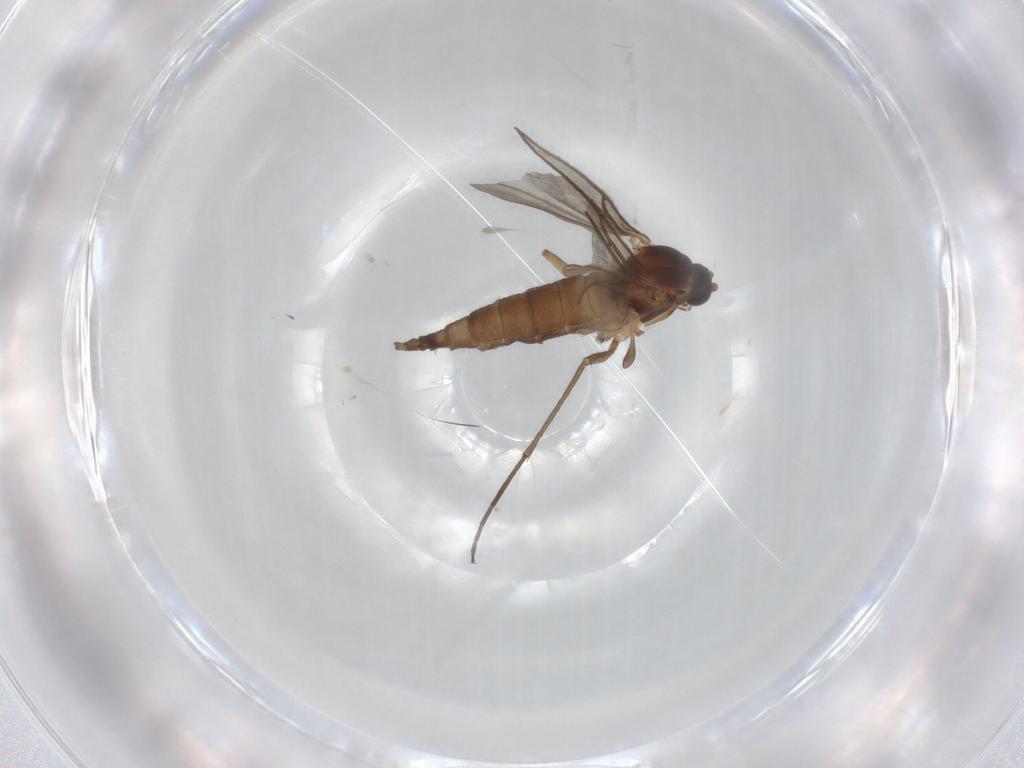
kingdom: Animalia
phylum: Arthropoda
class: Insecta
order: Diptera
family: Sciaridae
